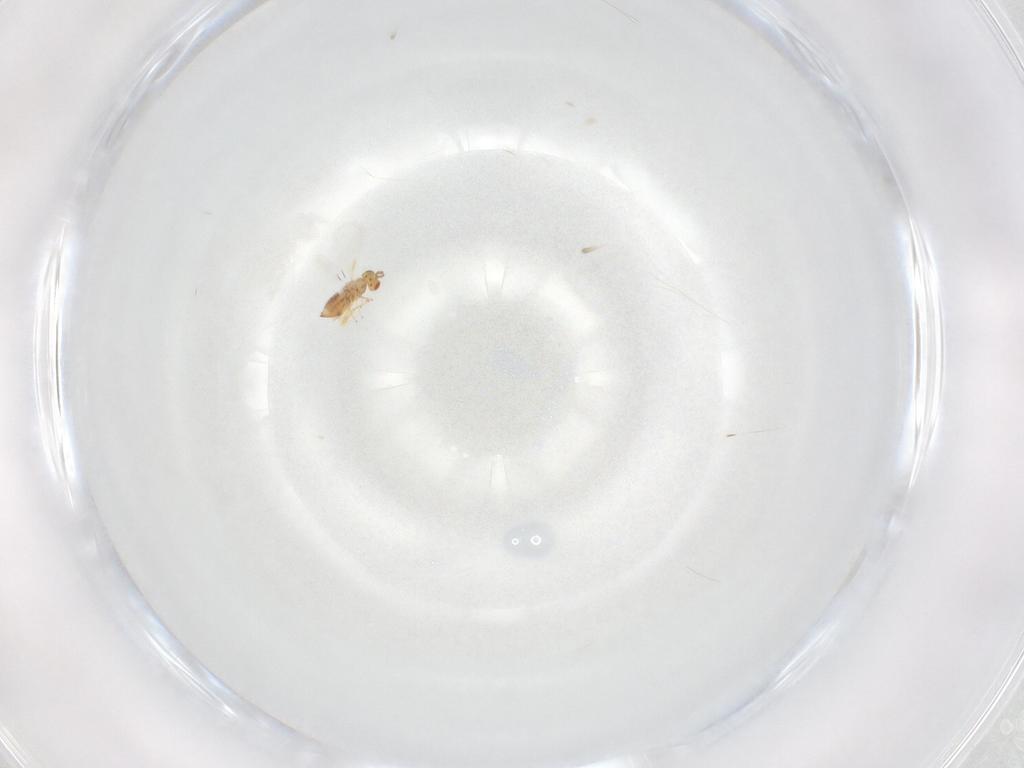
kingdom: Animalia
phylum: Arthropoda
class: Insecta
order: Hymenoptera
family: Trichogrammatidae
